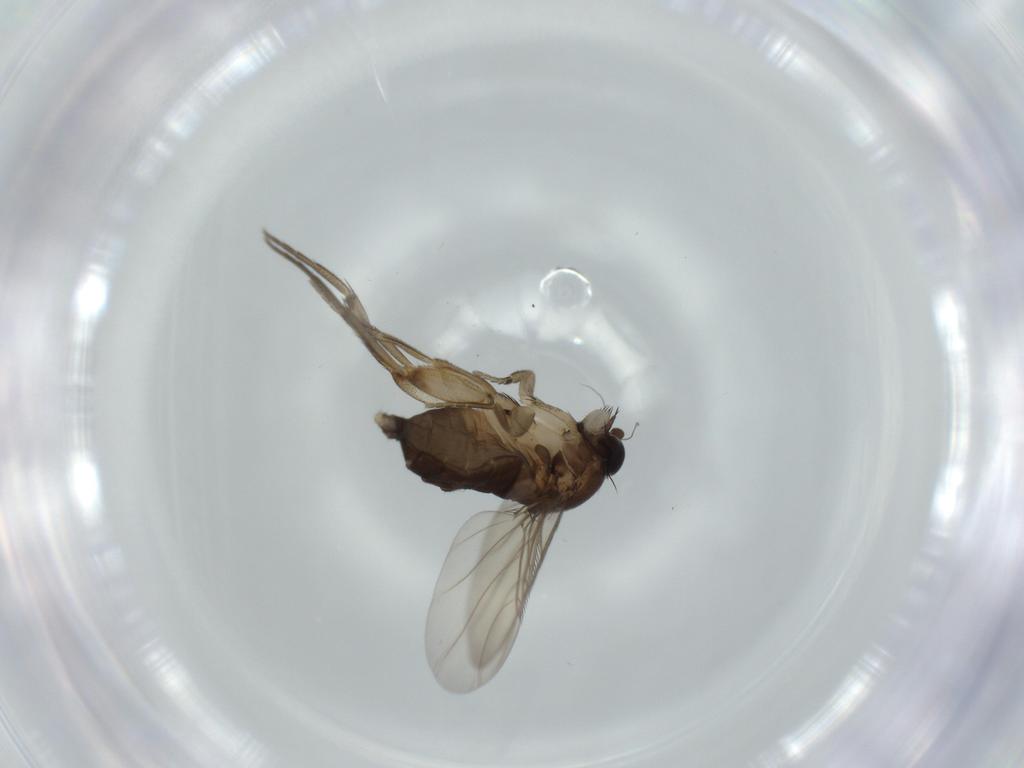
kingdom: Animalia
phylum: Arthropoda
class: Insecta
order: Diptera
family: Phoridae
